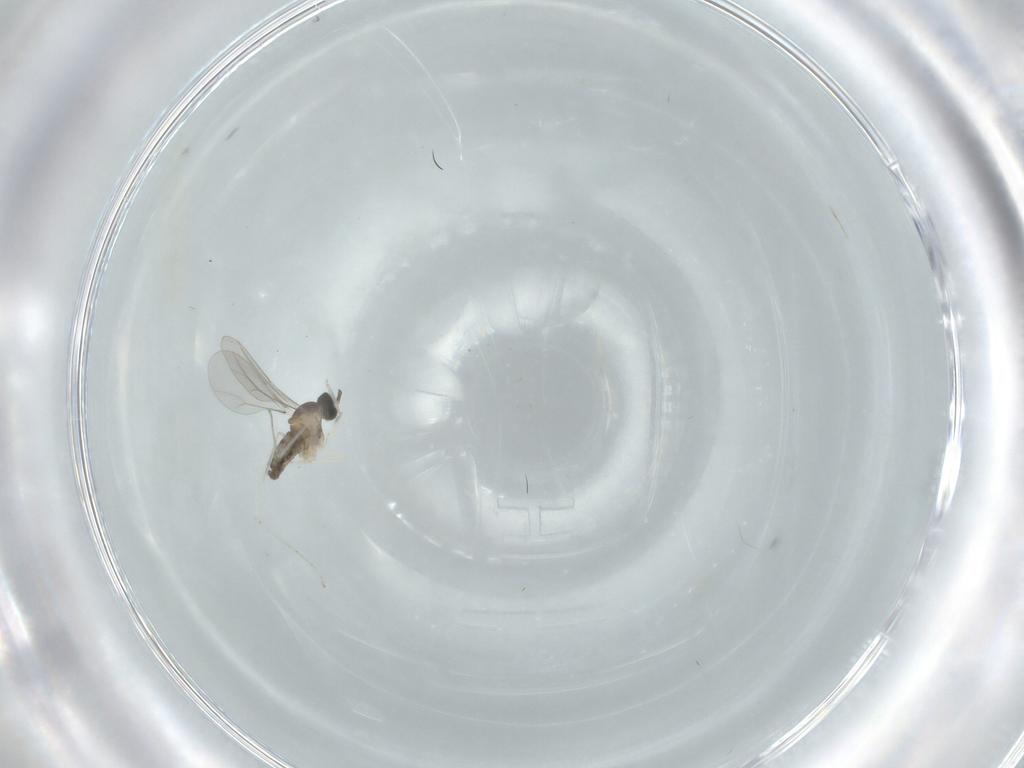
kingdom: Animalia
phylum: Arthropoda
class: Insecta
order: Diptera
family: Cecidomyiidae
